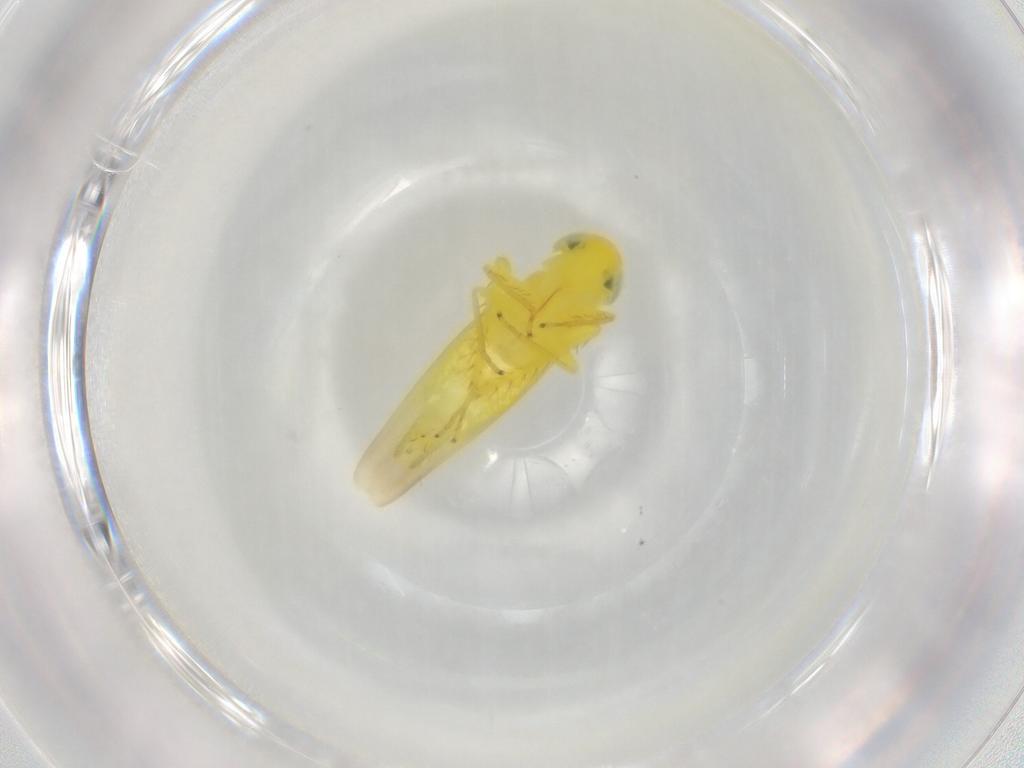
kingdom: Animalia
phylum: Arthropoda
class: Insecta
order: Hemiptera
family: Cicadellidae
